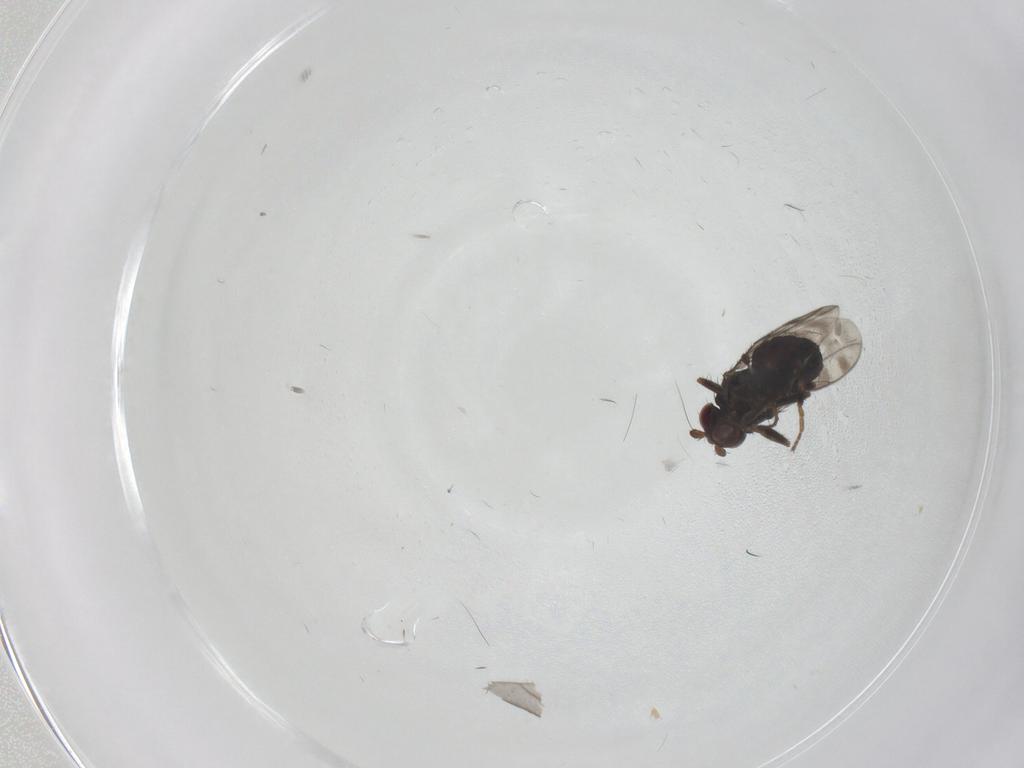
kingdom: Animalia
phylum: Arthropoda
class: Insecta
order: Diptera
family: Sphaeroceridae
